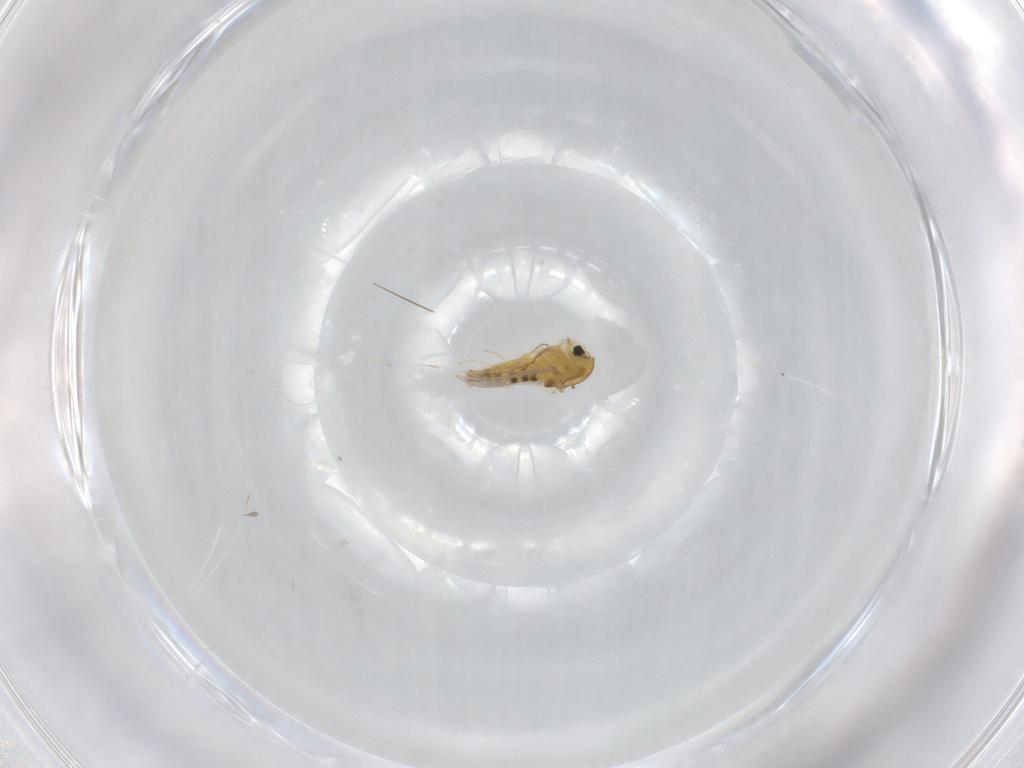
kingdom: Animalia
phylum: Arthropoda
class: Insecta
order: Diptera
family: Chironomidae
